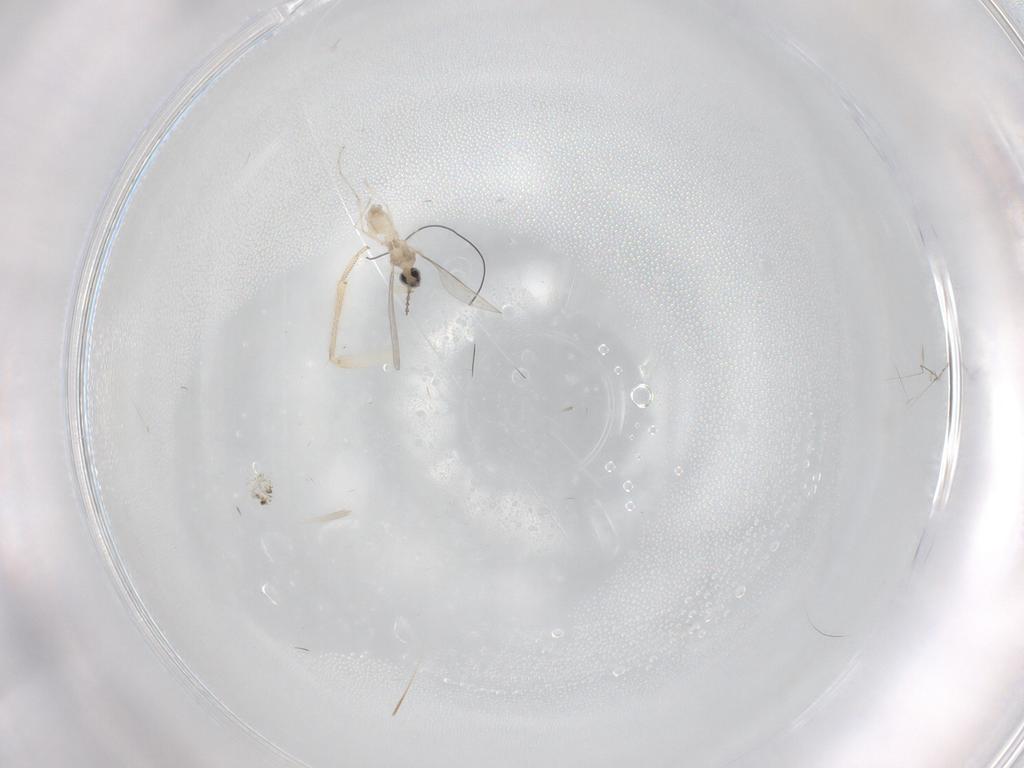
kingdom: Animalia
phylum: Arthropoda
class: Insecta
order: Diptera
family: Cecidomyiidae
